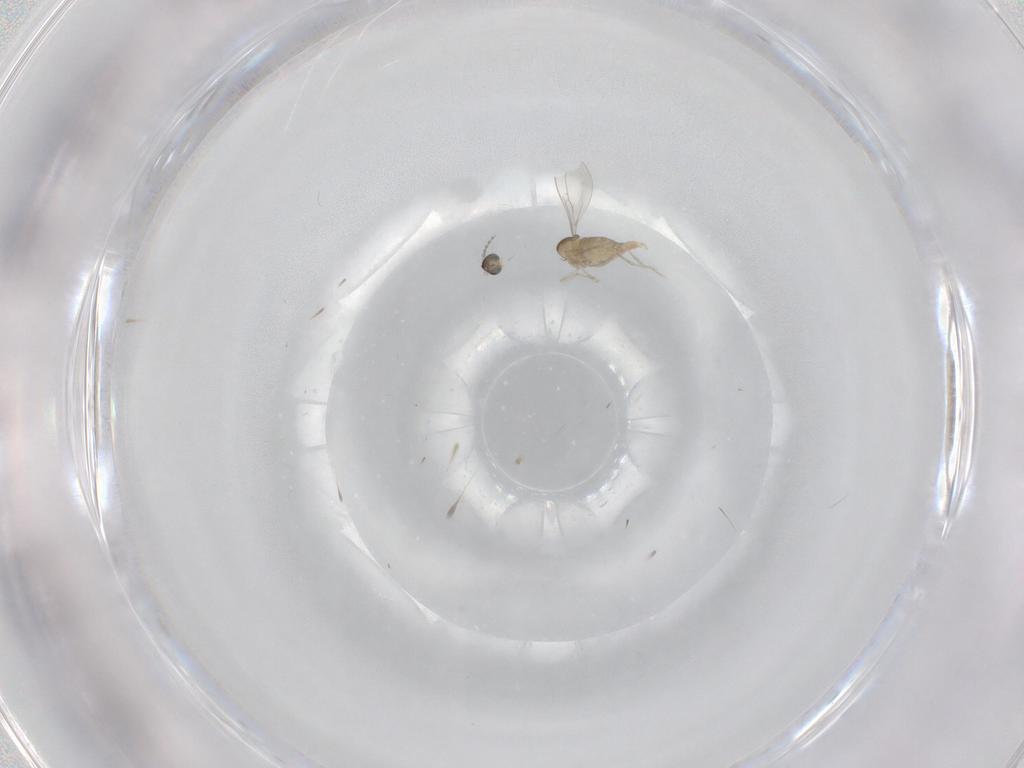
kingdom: Animalia
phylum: Arthropoda
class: Insecta
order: Diptera
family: Cecidomyiidae
